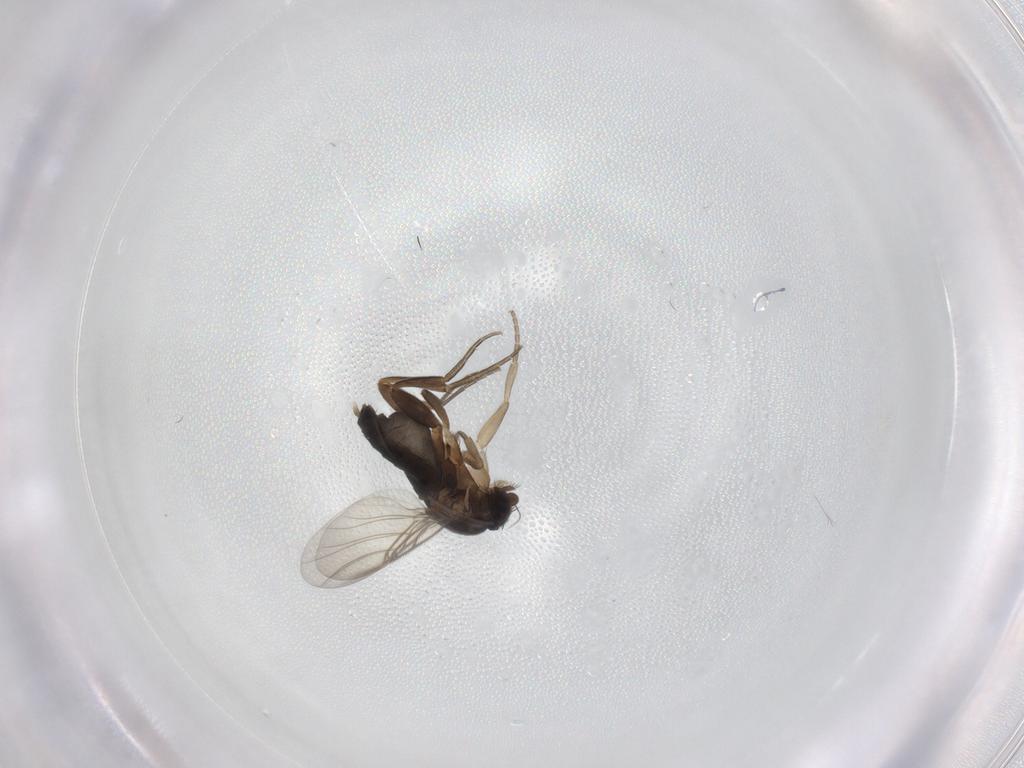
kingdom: Animalia
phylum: Arthropoda
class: Insecta
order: Diptera
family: Phoridae
